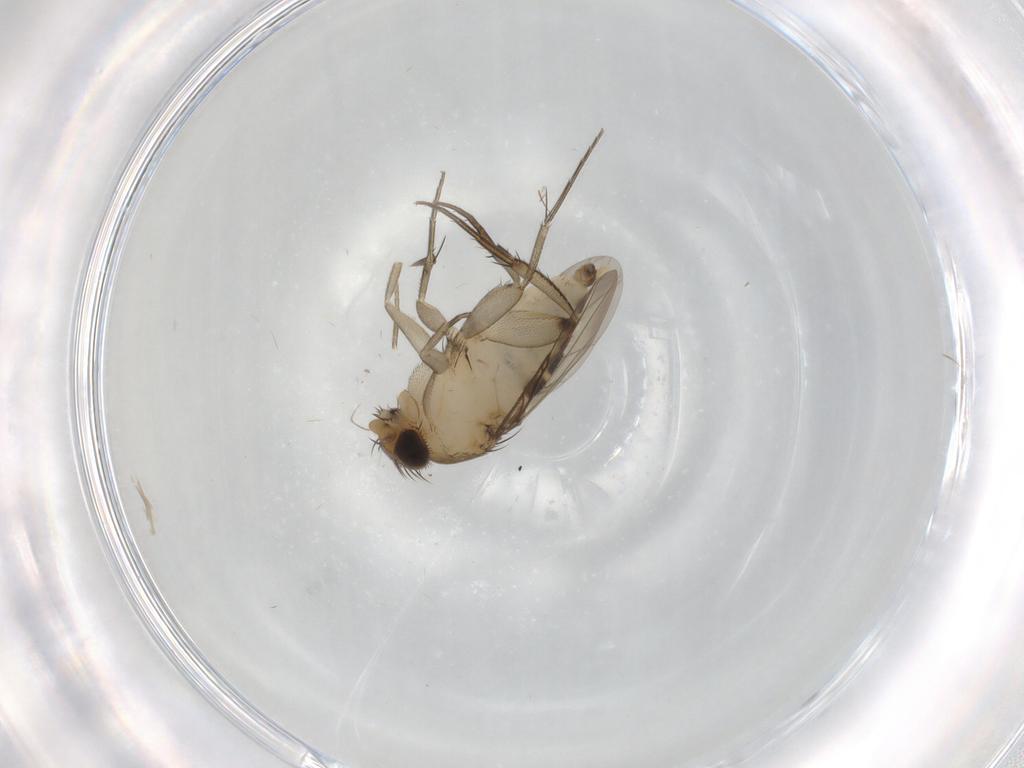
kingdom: Animalia
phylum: Arthropoda
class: Insecta
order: Diptera
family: Phoridae
